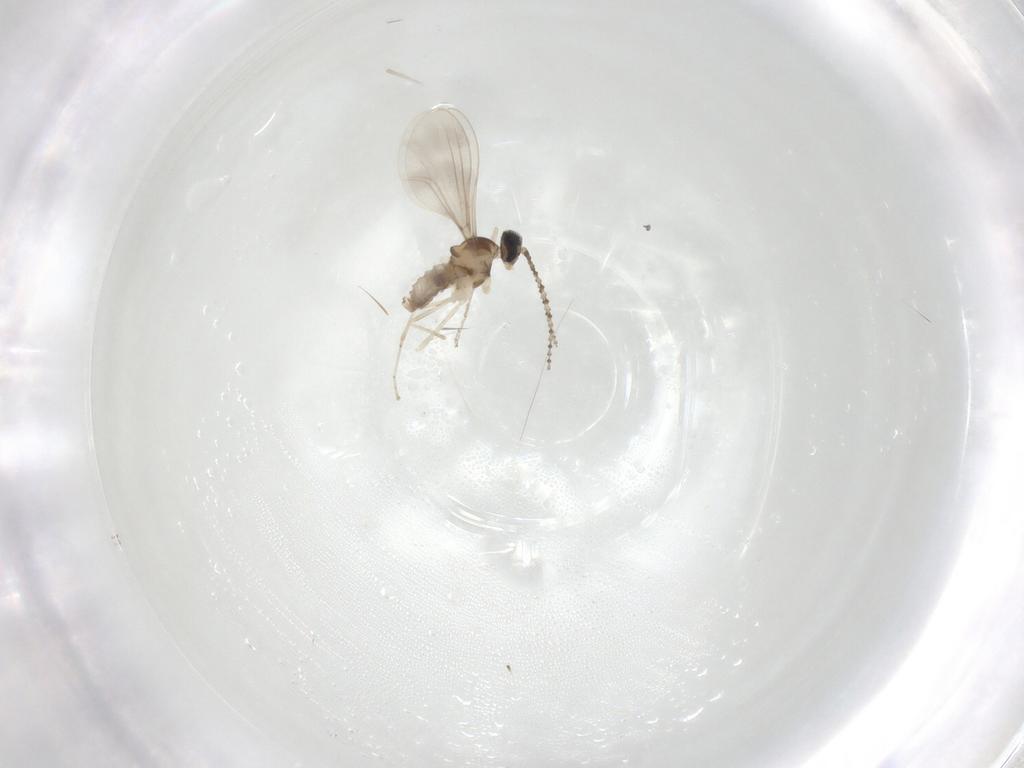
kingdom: Animalia
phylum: Arthropoda
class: Insecta
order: Diptera
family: Cecidomyiidae
